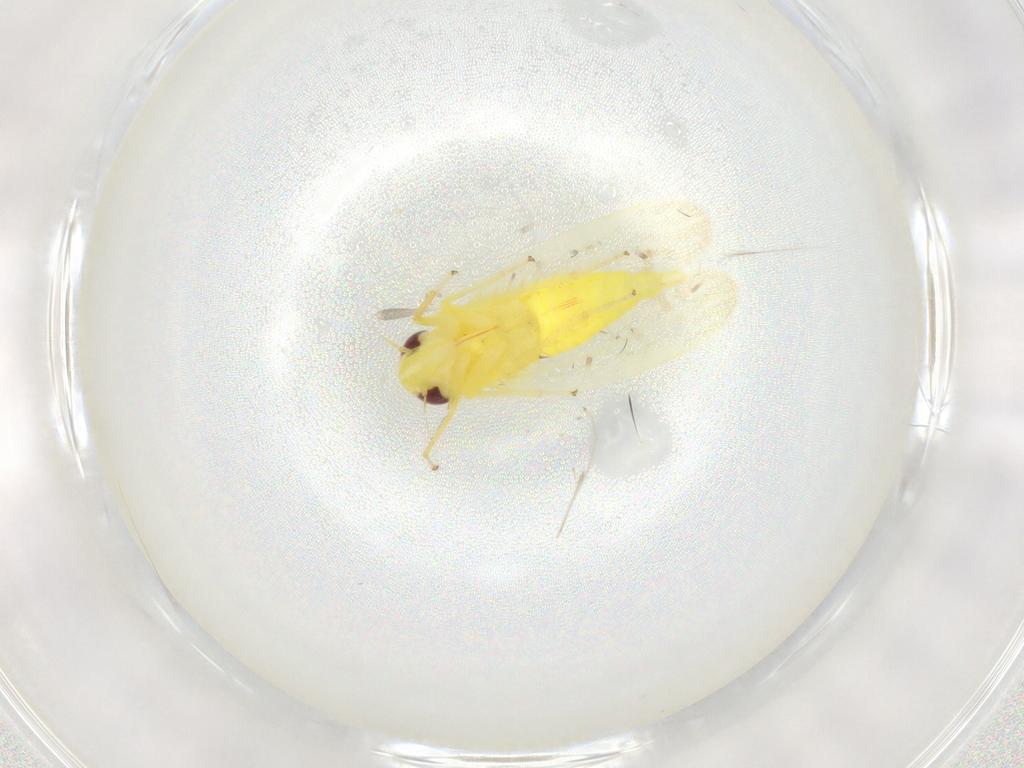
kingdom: Animalia
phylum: Arthropoda
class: Insecta
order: Hemiptera
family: Cicadellidae
